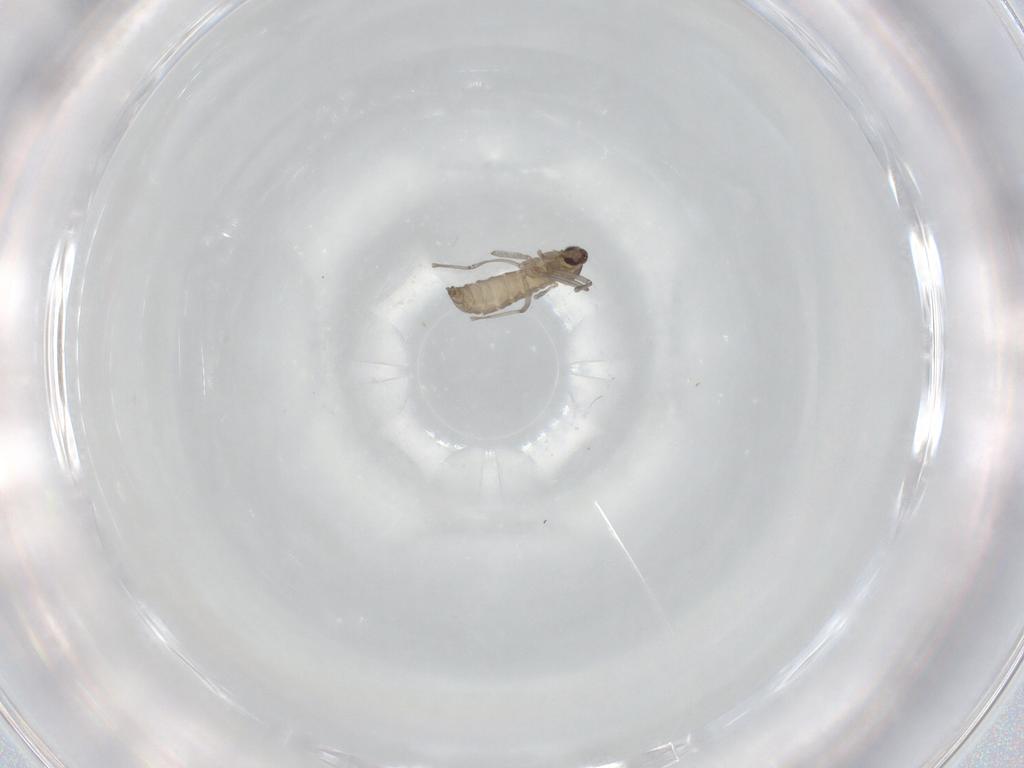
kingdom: Animalia
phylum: Arthropoda
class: Insecta
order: Diptera
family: Cecidomyiidae
